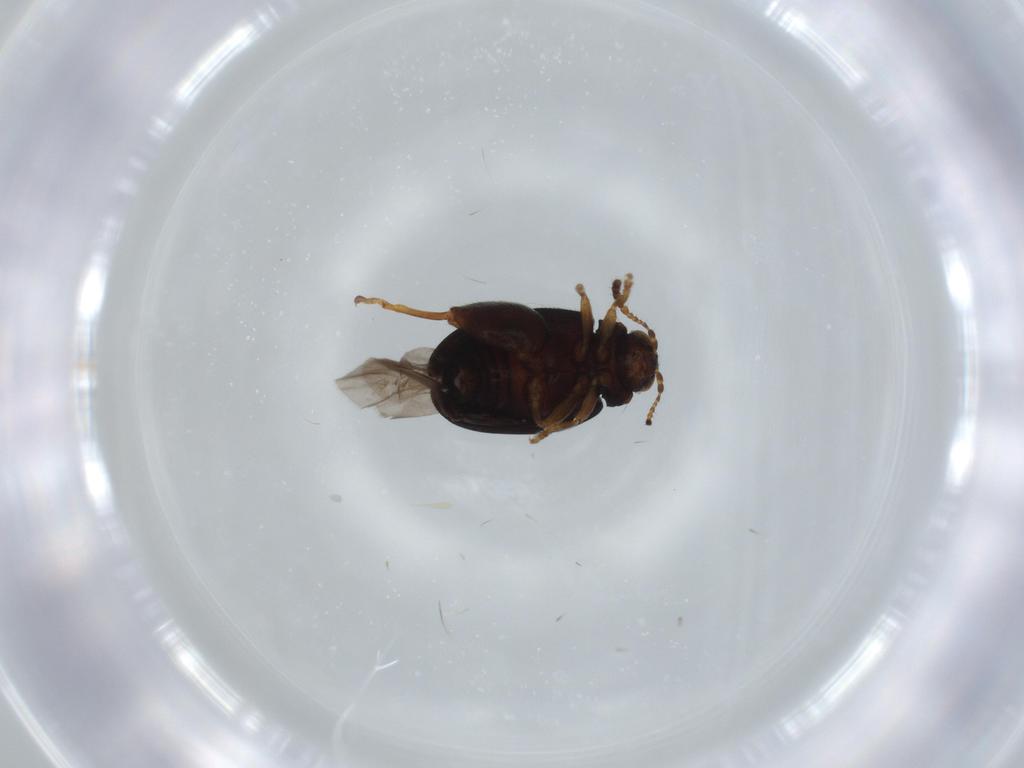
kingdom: Animalia
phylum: Arthropoda
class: Insecta
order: Coleoptera
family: Chrysomelidae
